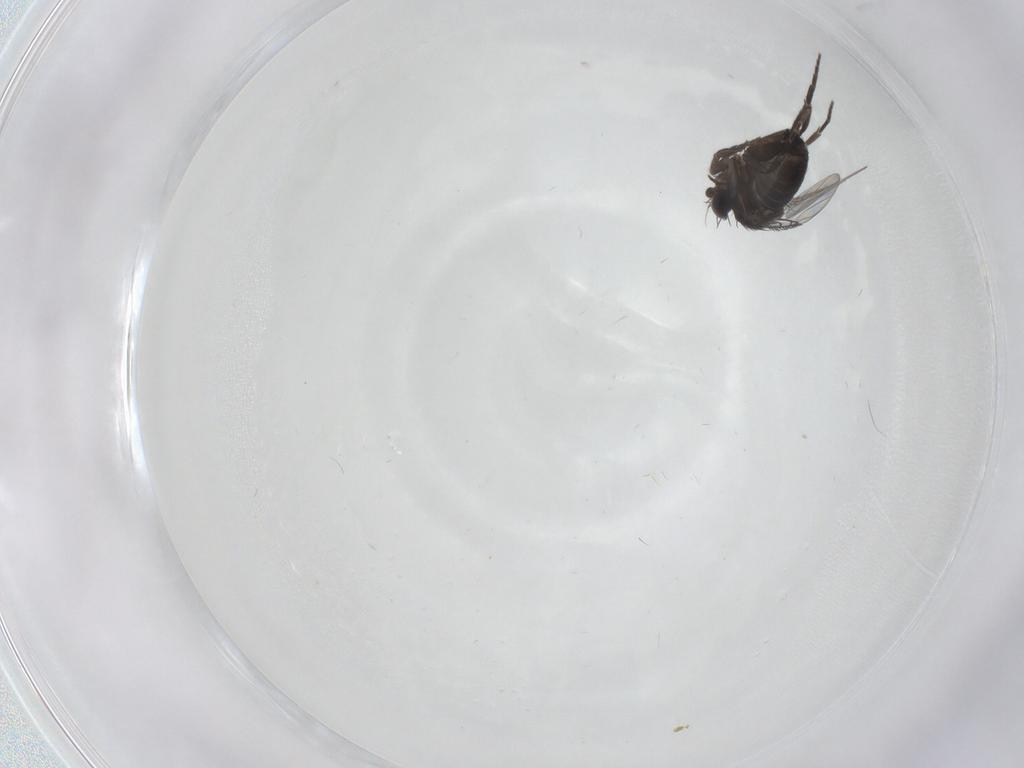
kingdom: Animalia
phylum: Arthropoda
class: Insecta
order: Diptera
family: Phoridae
